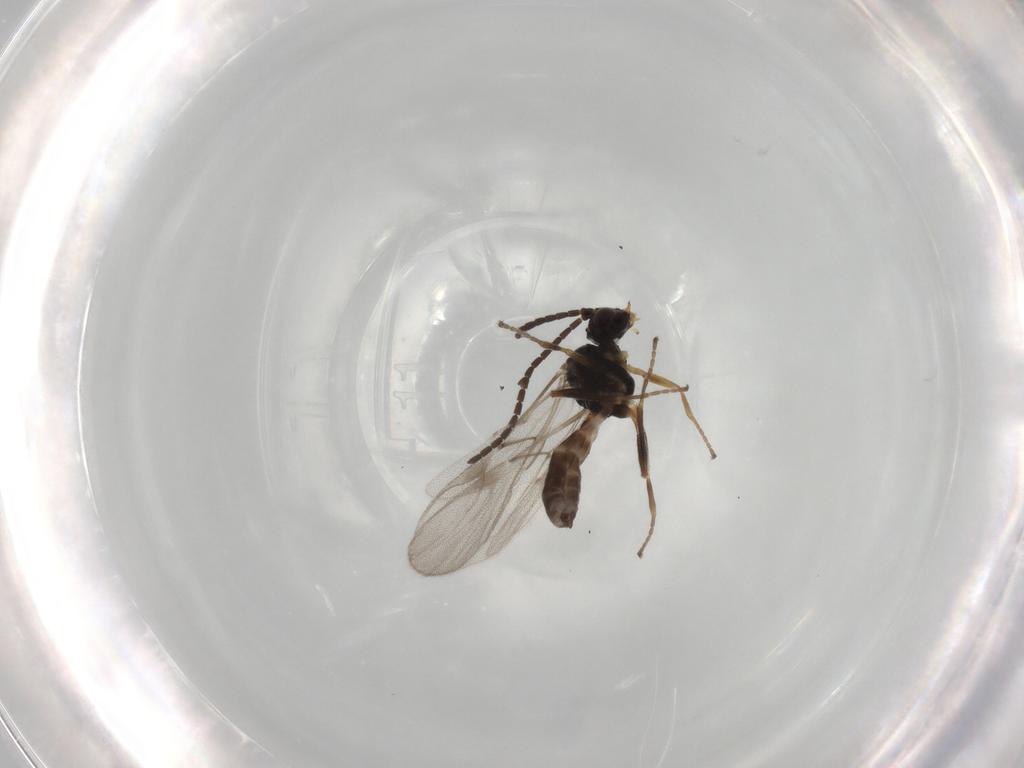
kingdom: Animalia
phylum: Arthropoda
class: Insecta
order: Hymenoptera
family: Braconidae
